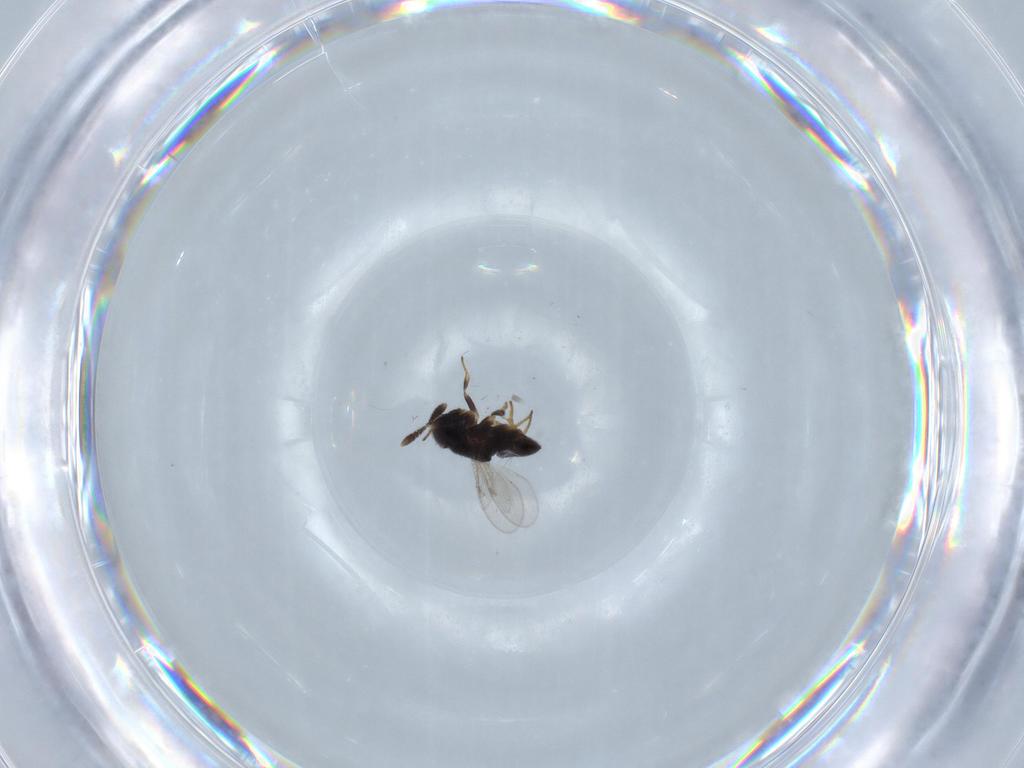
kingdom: Animalia
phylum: Arthropoda
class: Insecta
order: Hymenoptera
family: Encyrtidae
